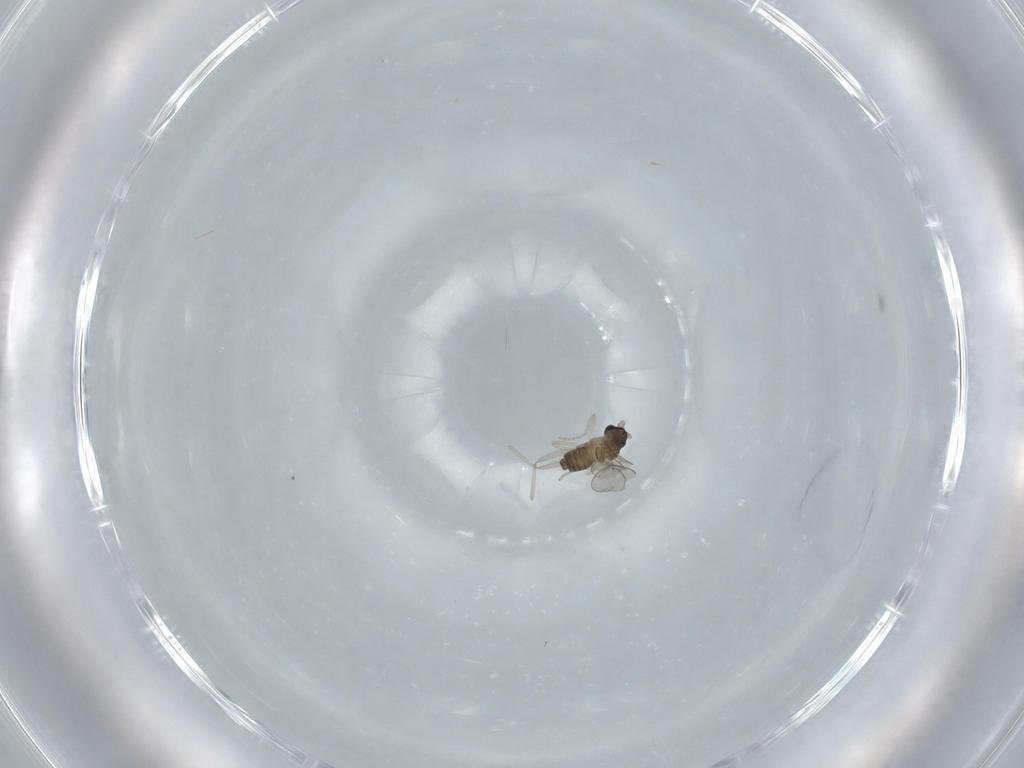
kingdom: Animalia
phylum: Arthropoda
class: Insecta
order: Diptera
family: Cecidomyiidae
